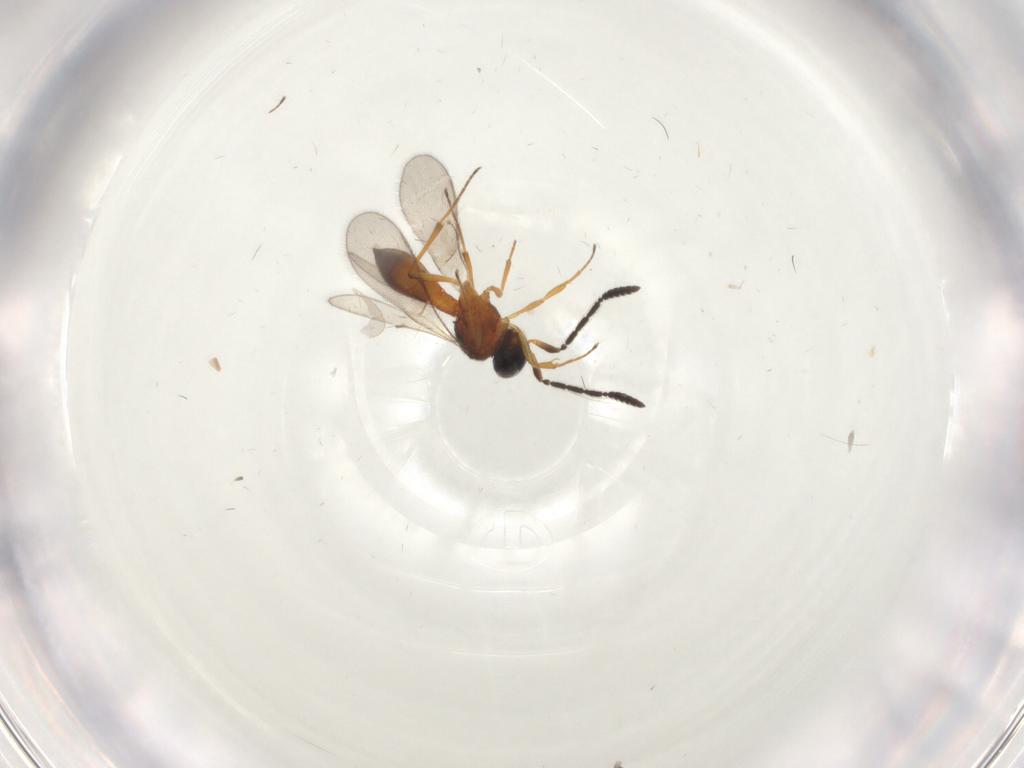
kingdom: Animalia
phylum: Arthropoda
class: Insecta
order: Hymenoptera
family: Scelionidae
